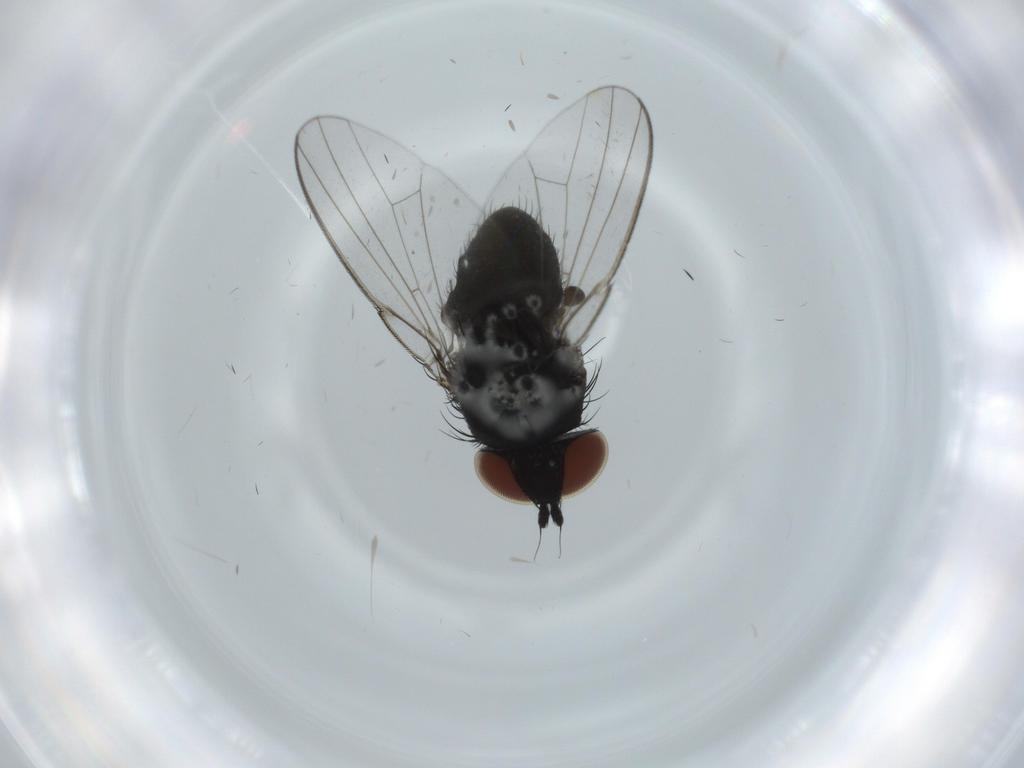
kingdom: Animalia
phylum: Arthropoda
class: Insecta
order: Diptera
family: Milichiidae
